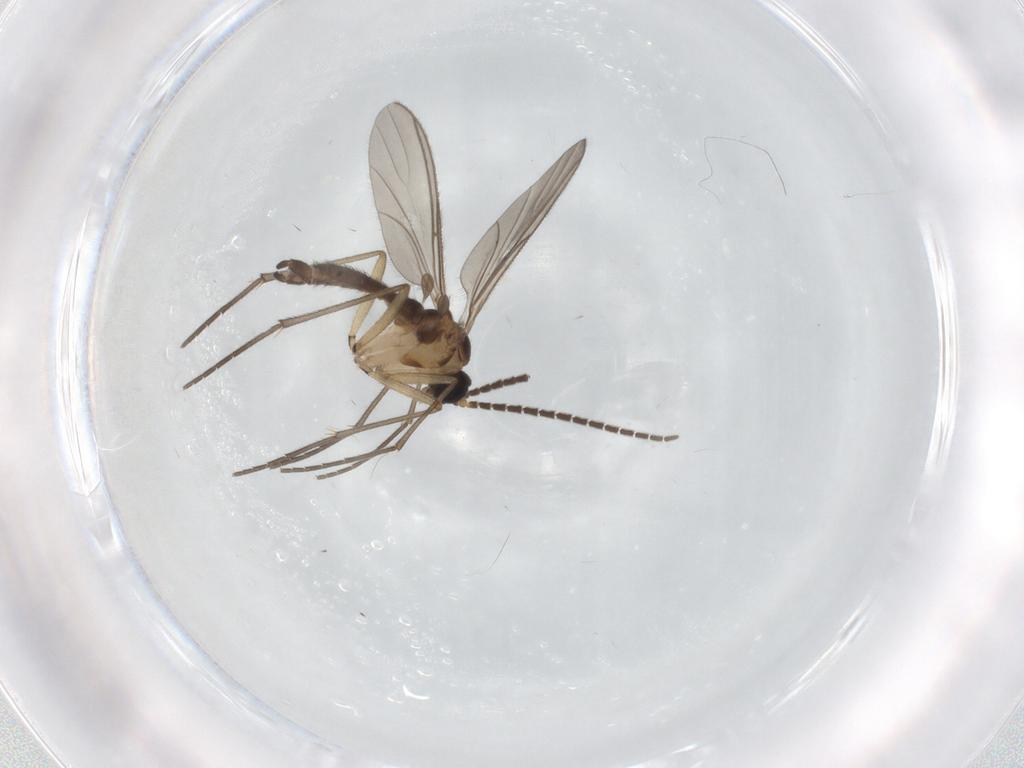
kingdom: Animalia
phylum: Arthropoda
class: Insecta
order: Diptera
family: Sciaridae
